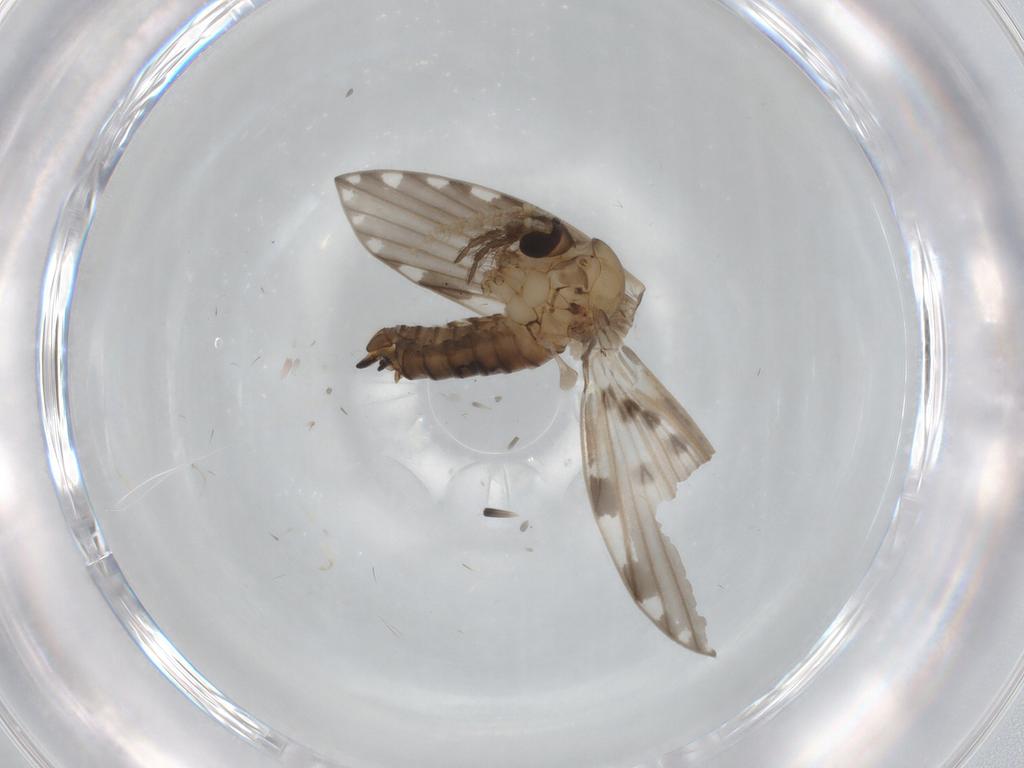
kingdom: Animalia
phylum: Arthropoda
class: Insecta
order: Diptera
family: Psychodidae
